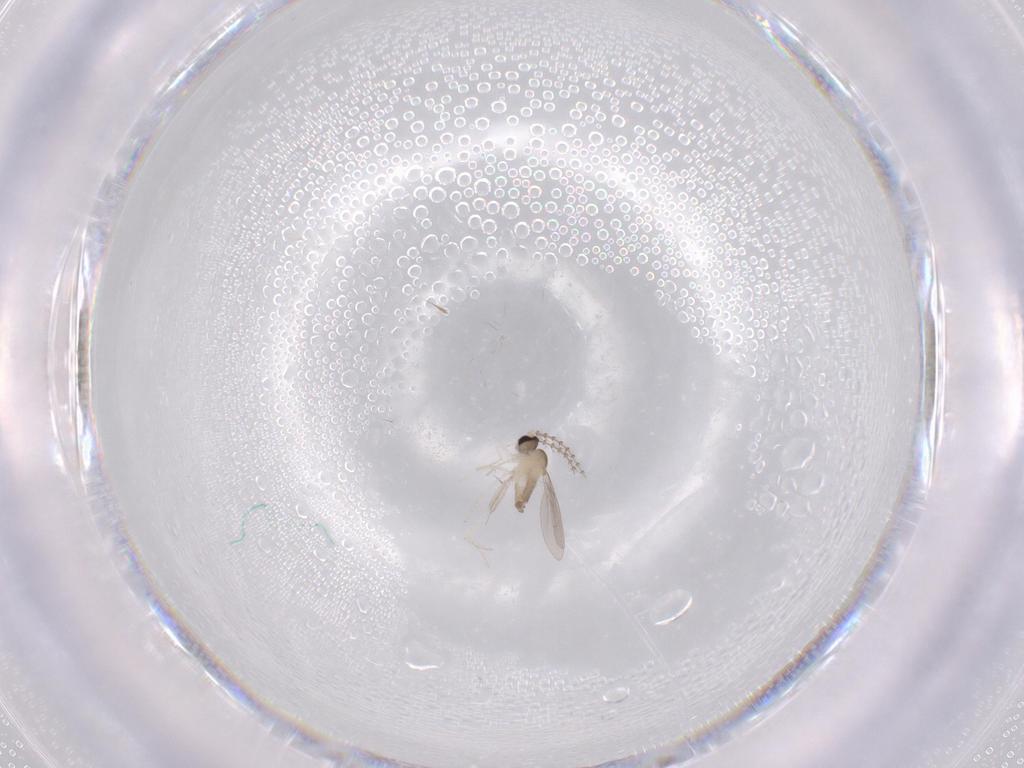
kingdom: Animalia
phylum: Arthropoda
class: Insecta
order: Diptera
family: Cecidomyiidae
